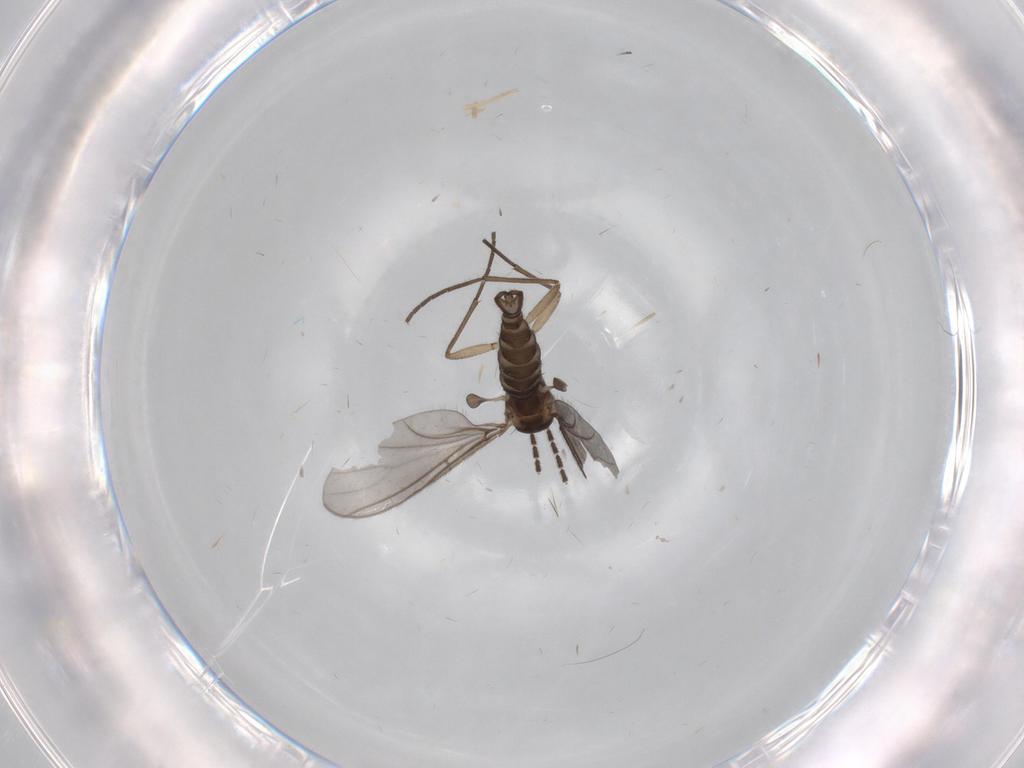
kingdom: Animalia
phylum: Arthropoda
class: Insecta
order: Diptera
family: Sciaridae
